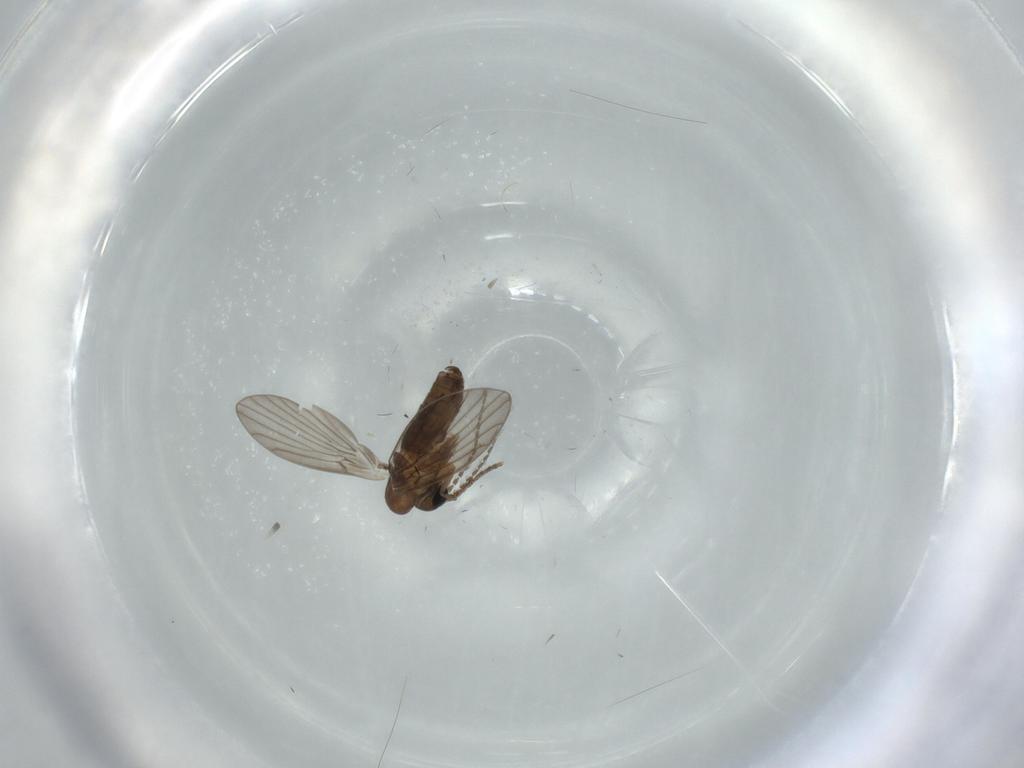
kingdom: Animalia
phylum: Arthropoda
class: Insecta
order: Diptera
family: Psychodidae
